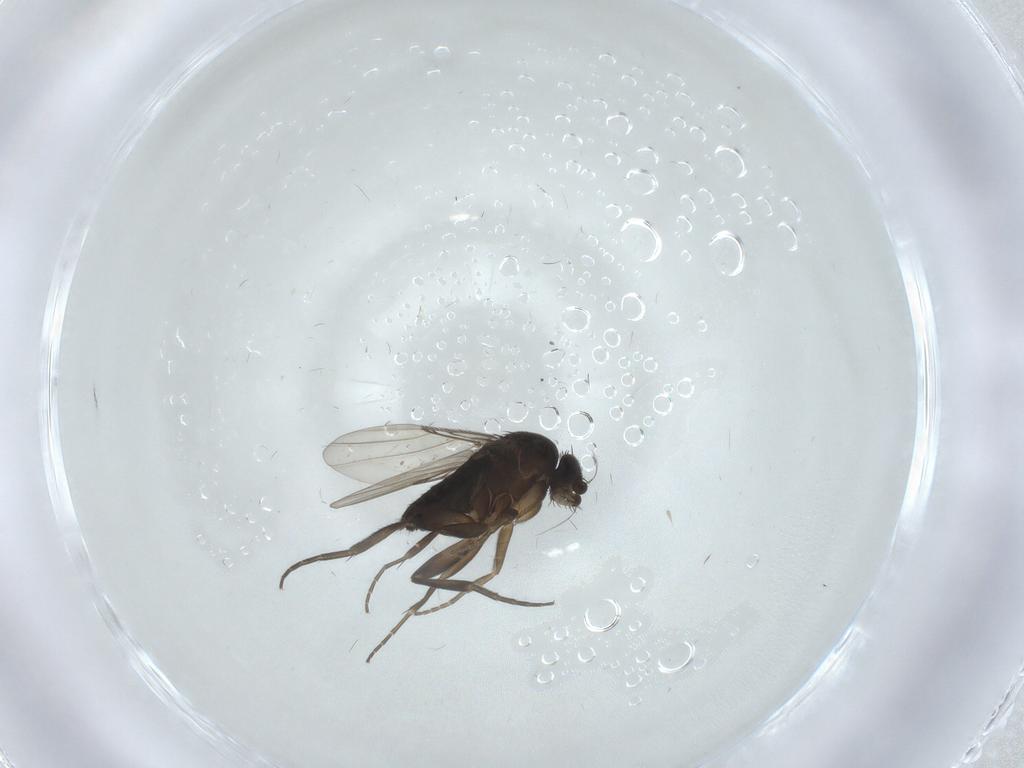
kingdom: Animalia
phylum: Arthropoda
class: Insecta
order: Diptera
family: Phoridae
